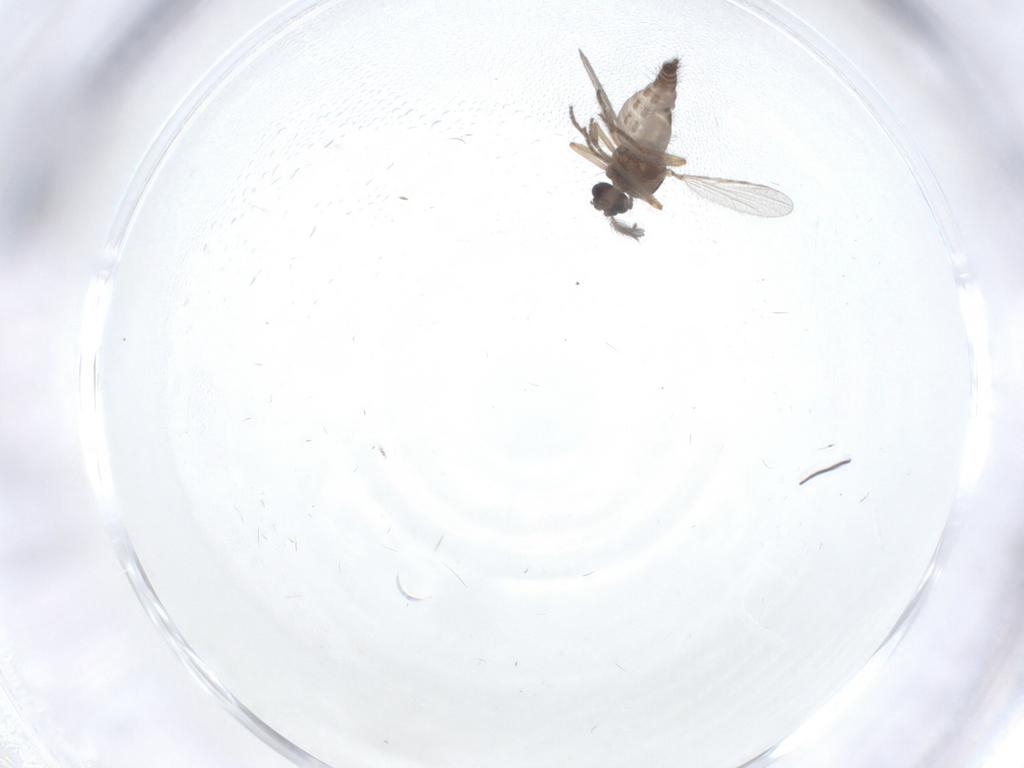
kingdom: Animalia
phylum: Arthropoda
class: Insecta
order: Diptera
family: Ceratopogonidae
